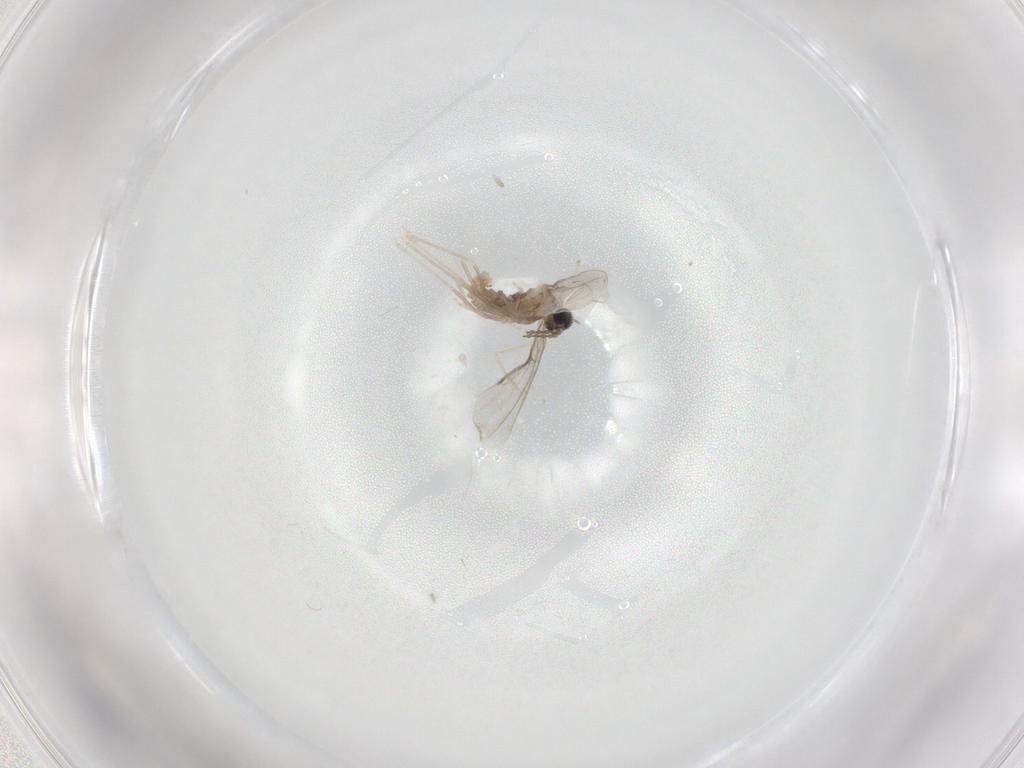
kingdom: Animalia
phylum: Arthropoda
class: Insecta
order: Diptera
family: Cecidomyiidae
